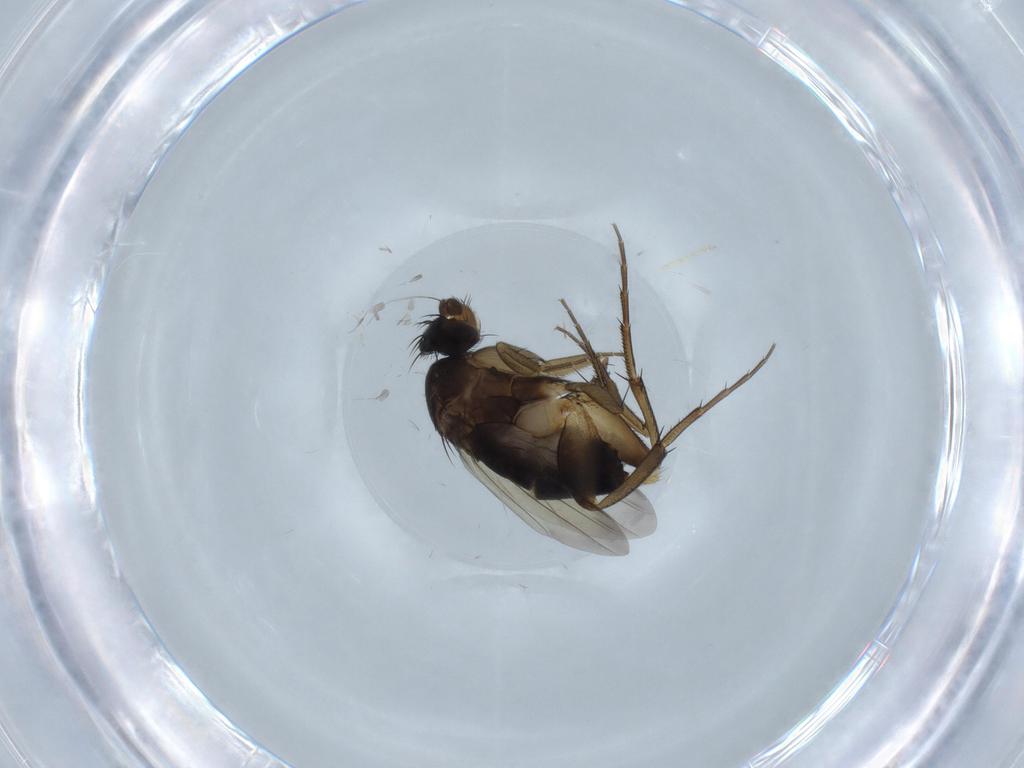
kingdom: Animalia
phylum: Arthropoda
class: Insecta
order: Diptera
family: Phoridae
